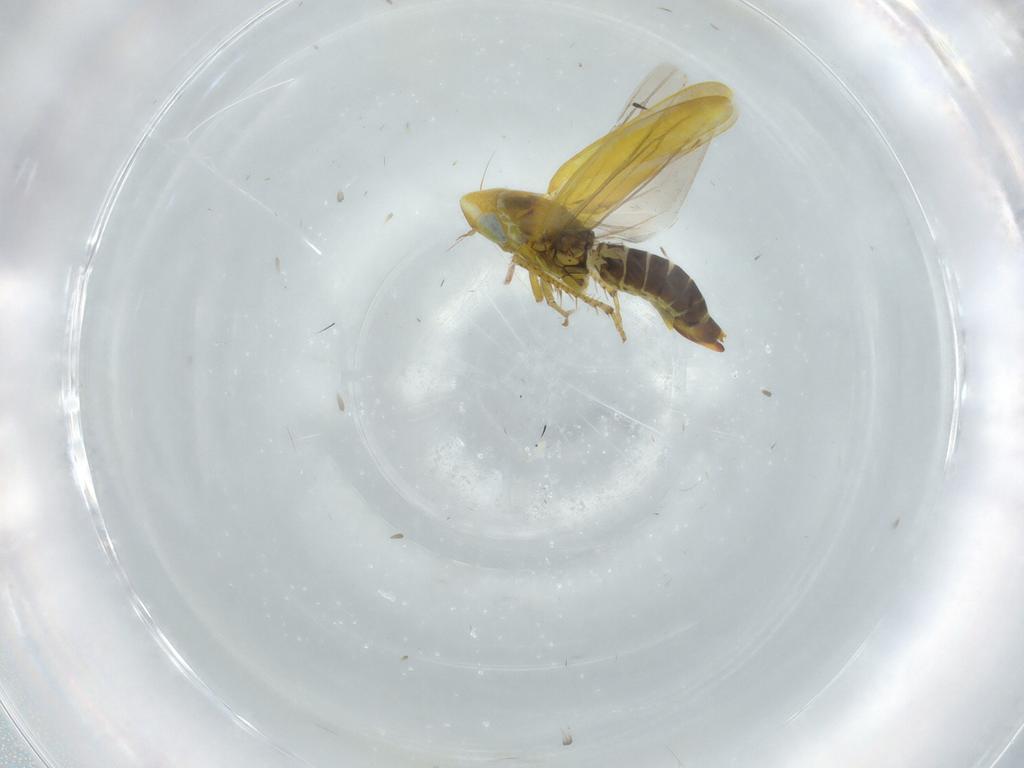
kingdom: Animalia
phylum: Arthropoda
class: Insecta
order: Hemiptera
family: Cicadellidae
